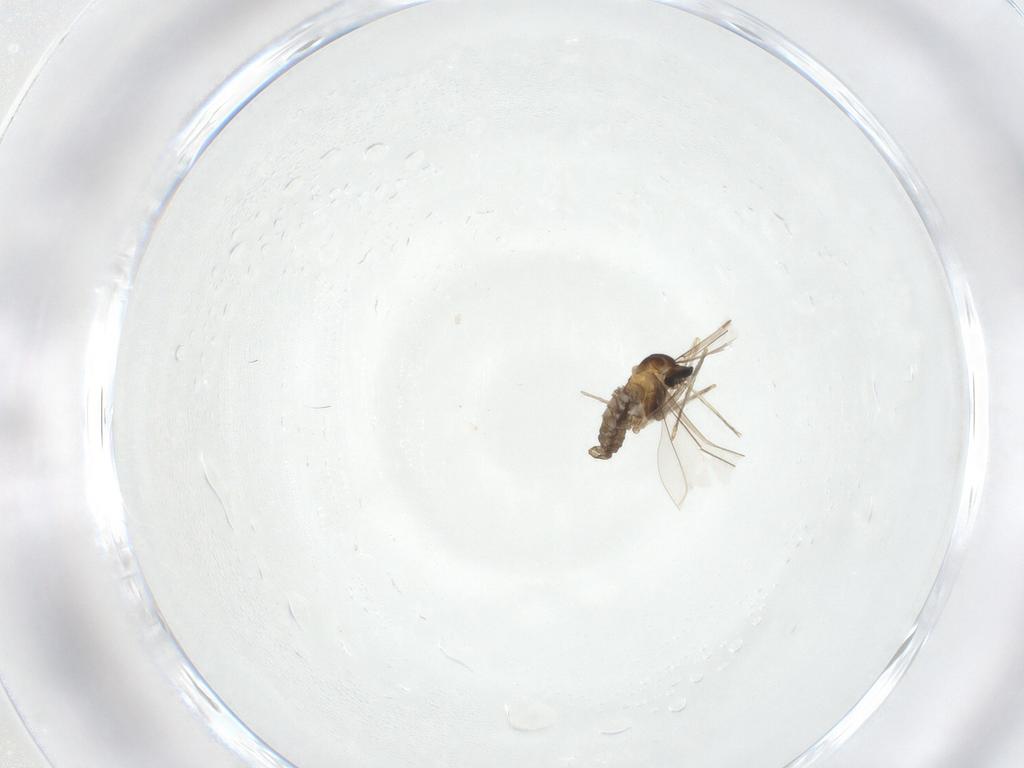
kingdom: Animalia
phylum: Arthropoda
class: Insecta
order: Diptera
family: Cecidomyiidae
